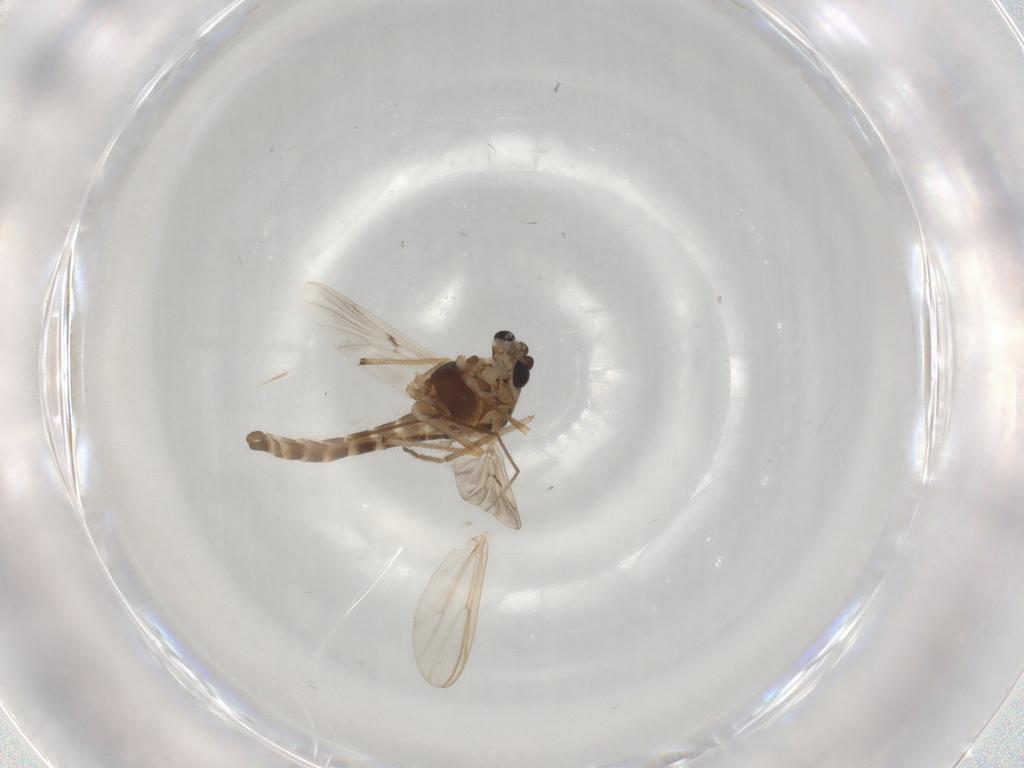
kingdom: Animalia
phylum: Arthropoda
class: Insecta
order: Diptera
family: Chironomidae
